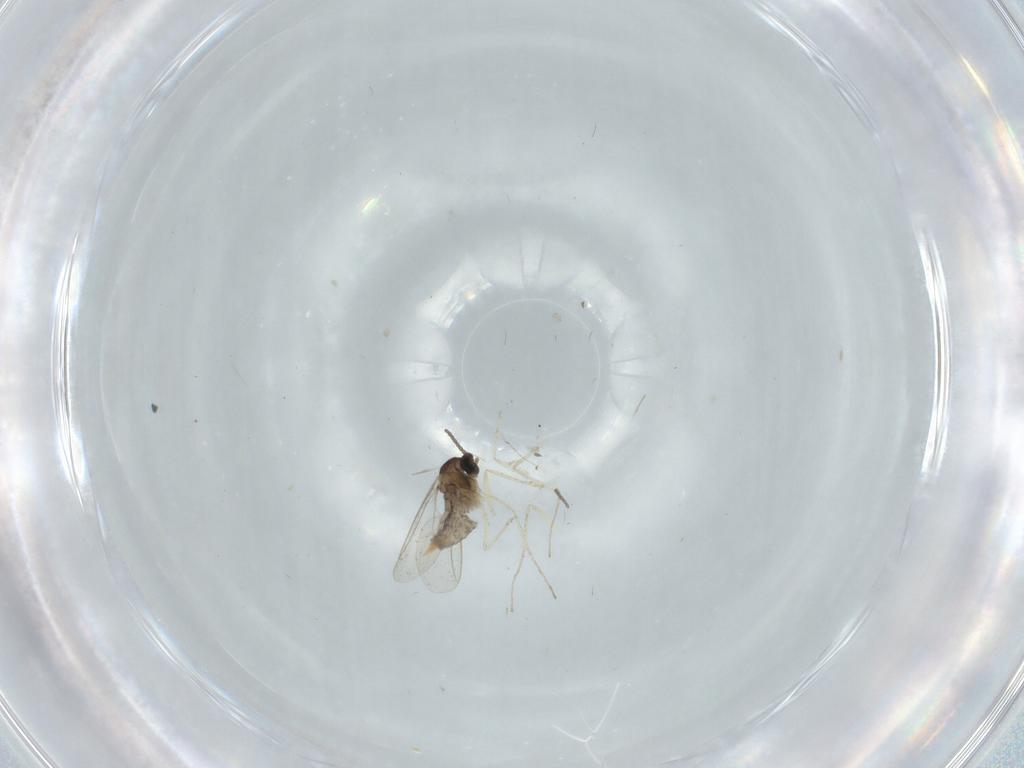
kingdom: Animalia
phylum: Arthropoda
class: Insecta
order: Diptera
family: Cecidomyiidae
